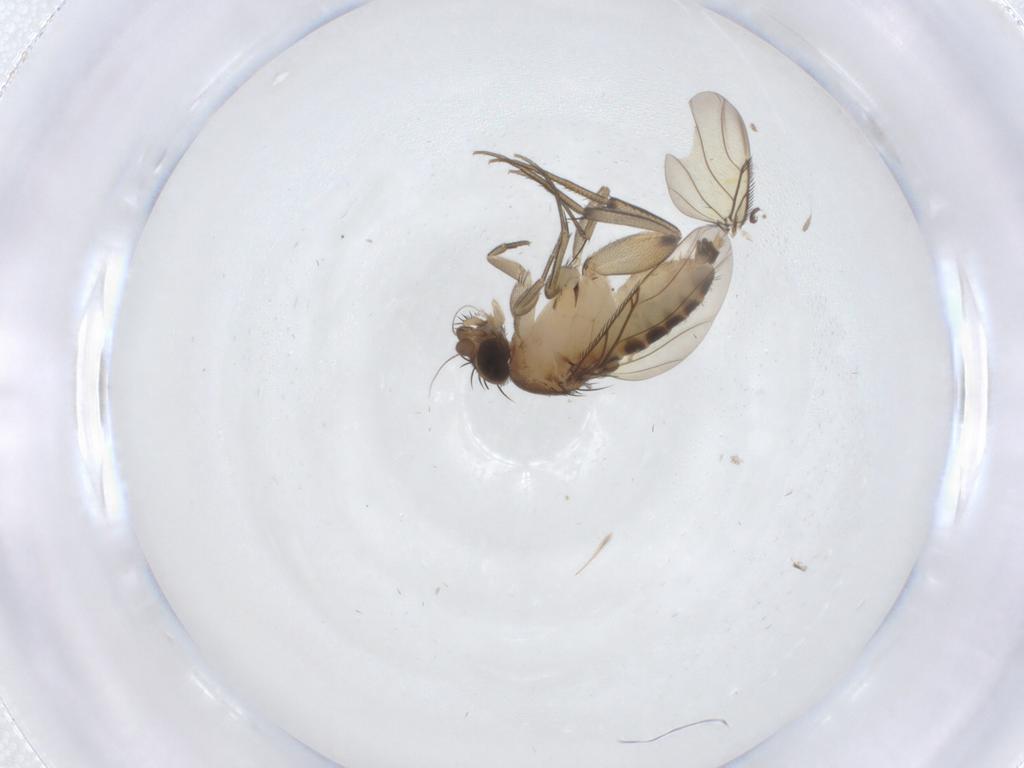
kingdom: Animalia
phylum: Arthropoda
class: Insecta
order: Diptera
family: Phoridae
